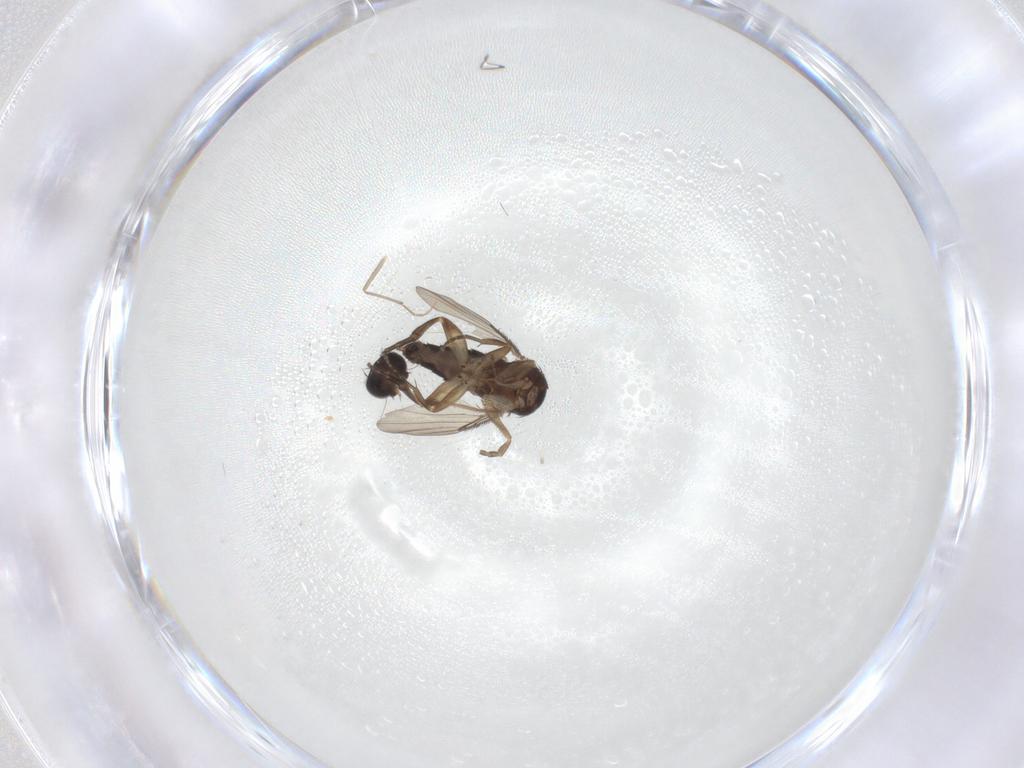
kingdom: Animalia
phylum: Arthropoda
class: Insecta
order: Diptera
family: Phoridae
